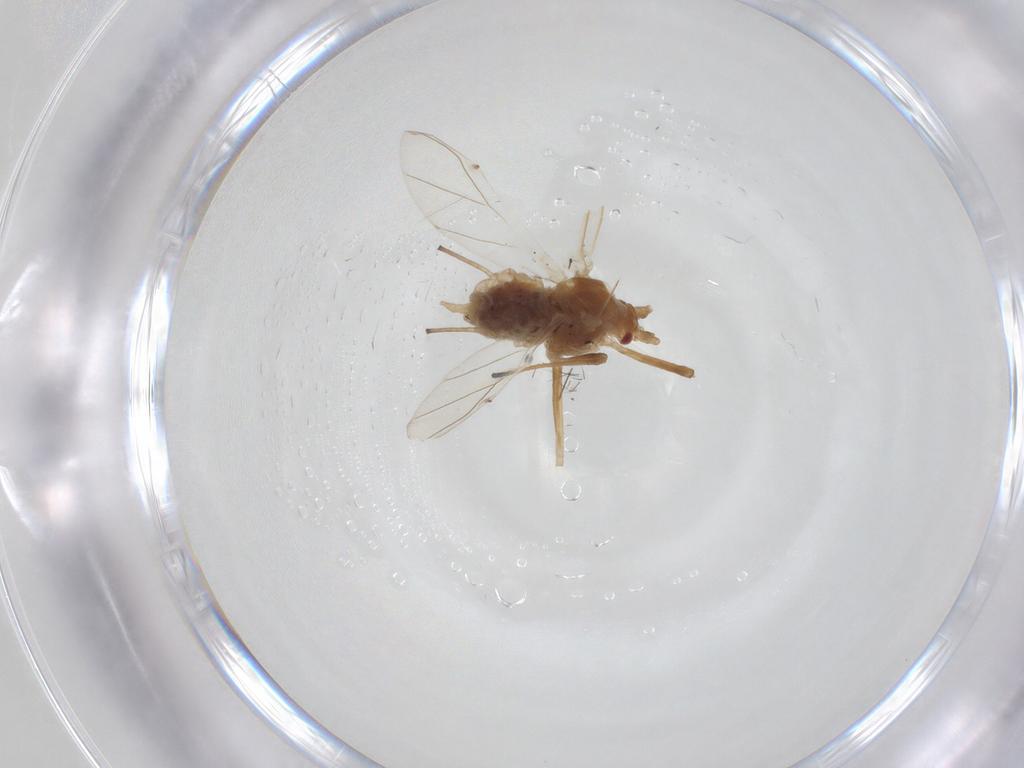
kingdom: Animalia
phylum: Arthropoda
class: Insecta
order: Hemiptera
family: Aphididae
